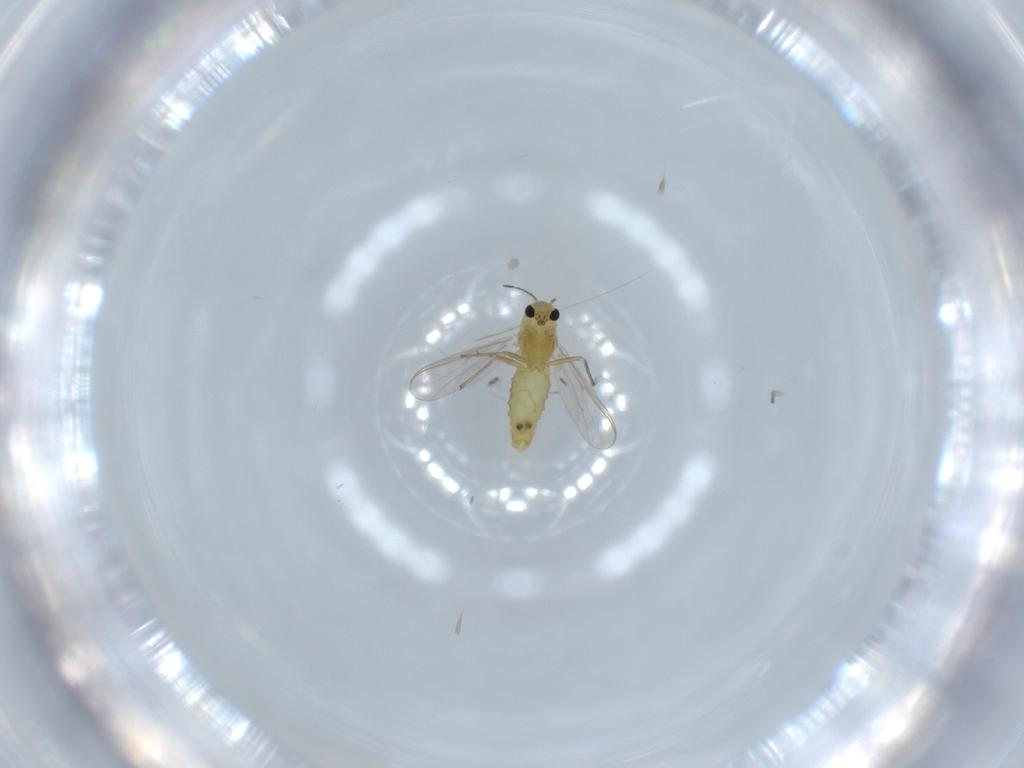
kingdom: Animalia
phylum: Arthropoda
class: Insecta
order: Diptera
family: Chironomidae
